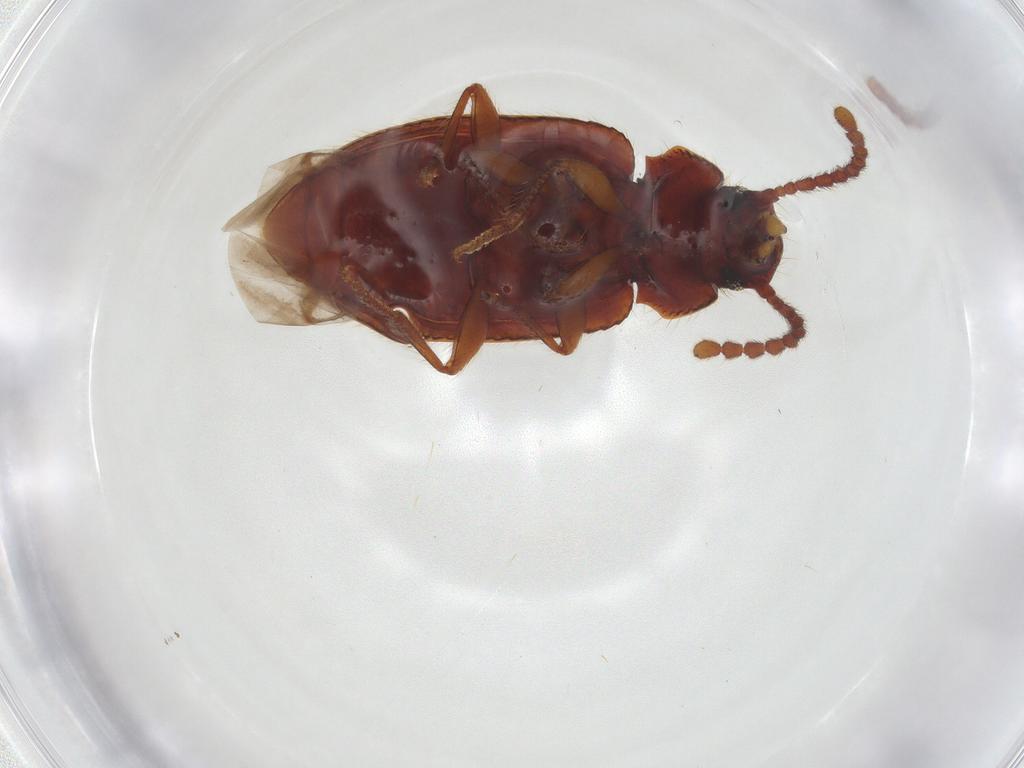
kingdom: Animalia
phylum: Arthropoda
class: Insecta
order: Coleoptera
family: Tenebrionidae
